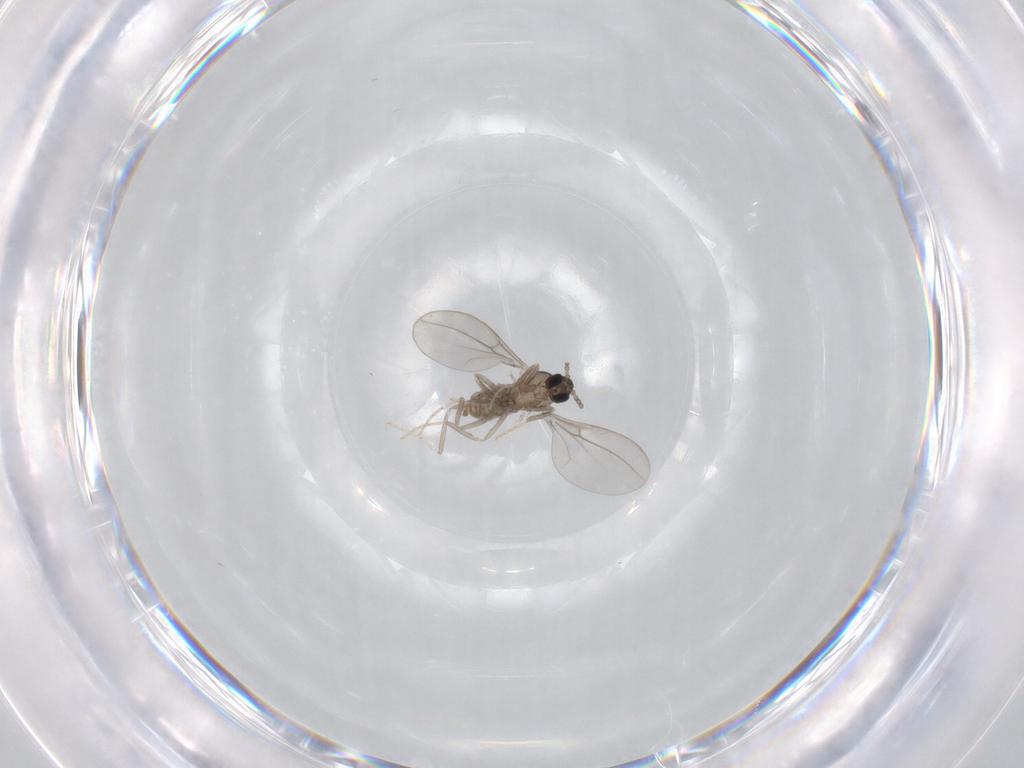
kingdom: Animalia
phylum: Arthropoda
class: Insecta
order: Diptera
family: Cecidomyiidae
